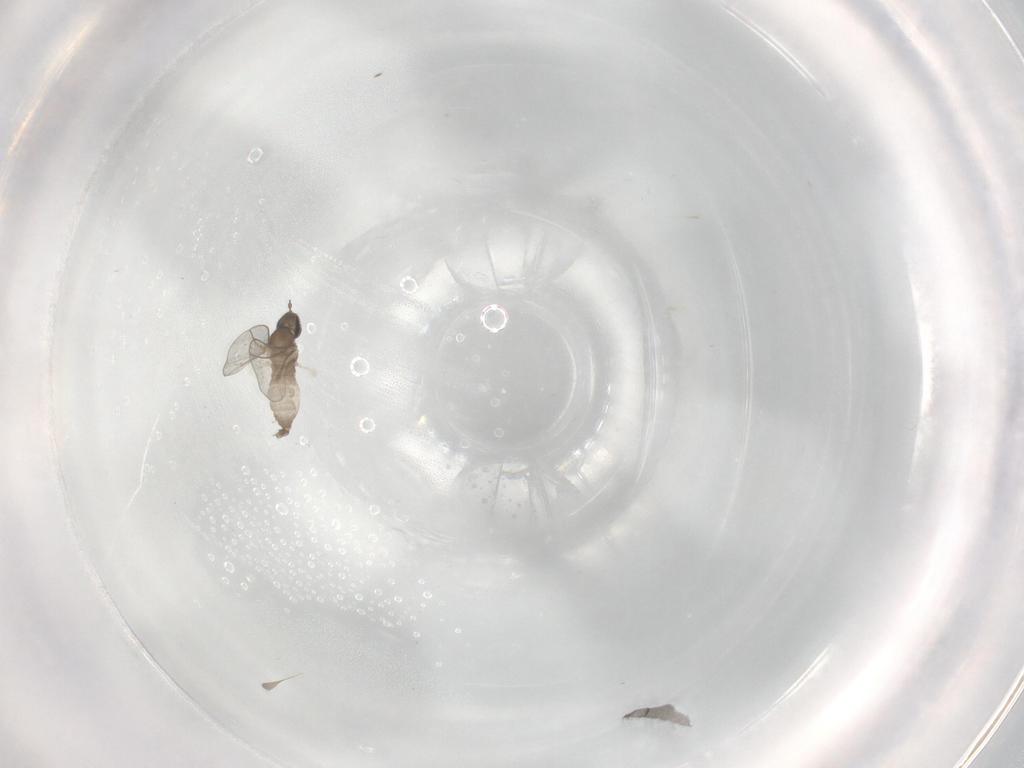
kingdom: Animalia
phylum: Arthropoda
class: Insecta
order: Diptera
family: Cecidomyiidae
